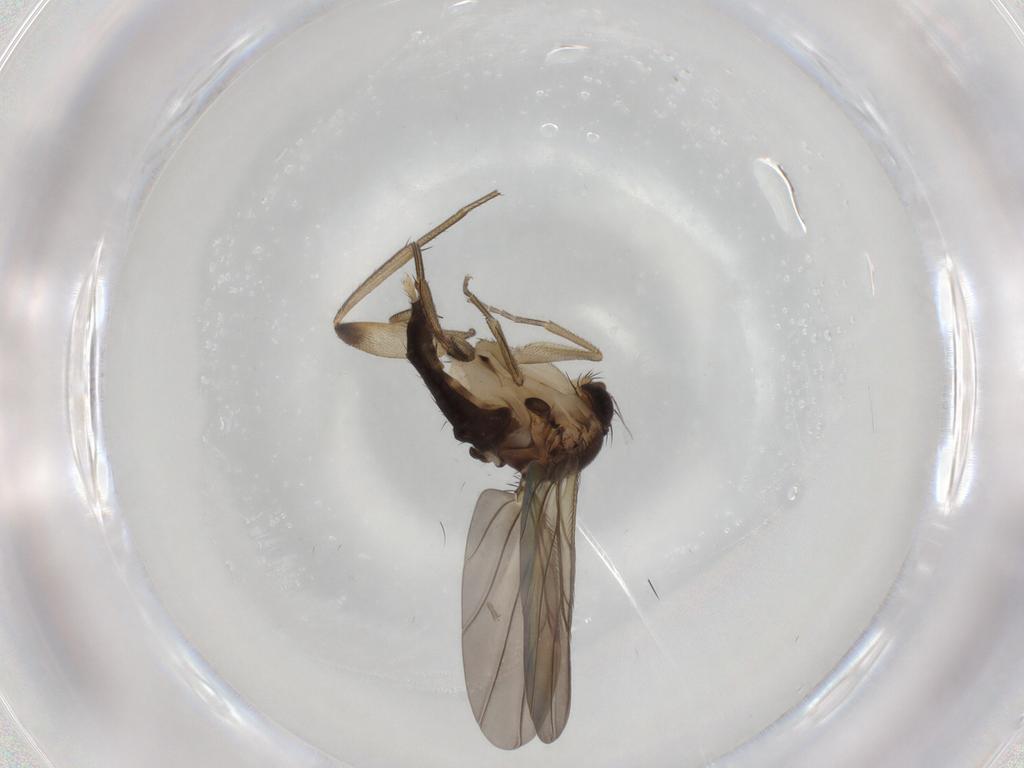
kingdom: Animalia
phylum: Arthropoda
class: Insecta
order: Diptera
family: Phoridae
